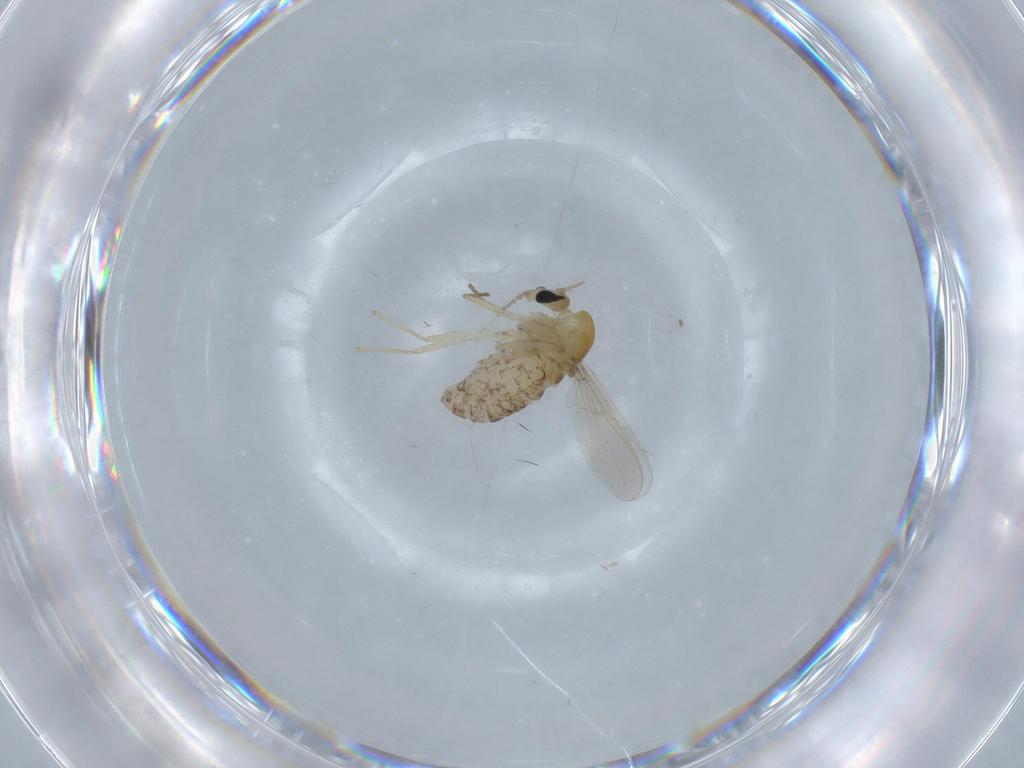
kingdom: Animalia
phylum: Arthropoda
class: Insecta
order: Diptera
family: Chironomidae
